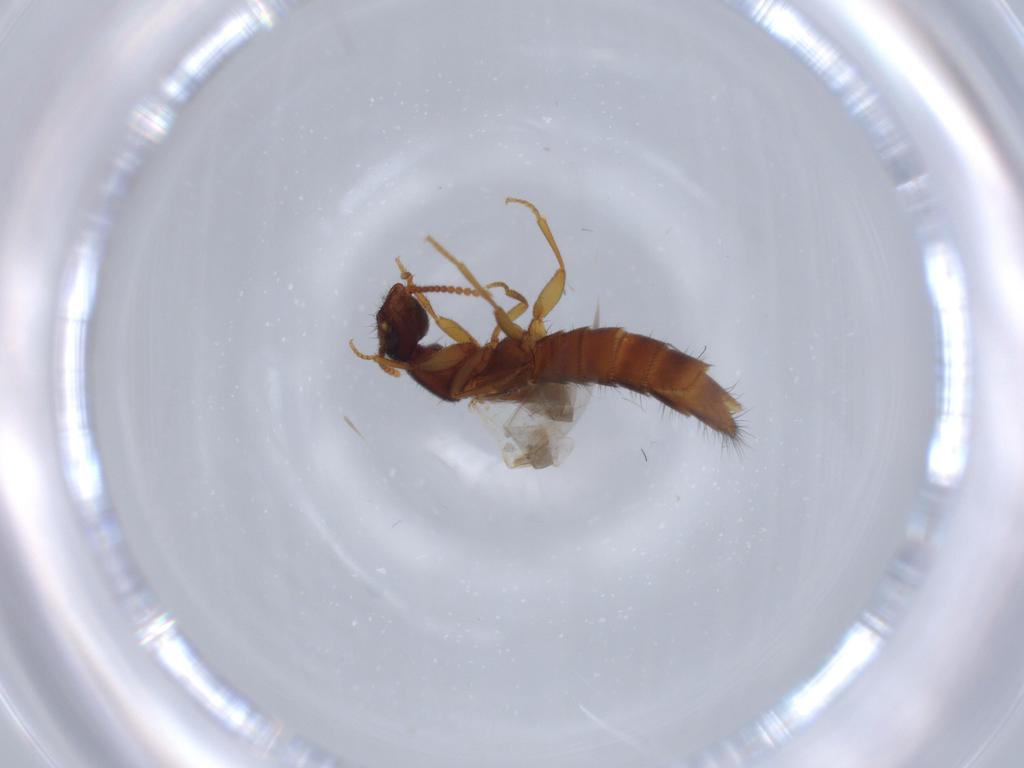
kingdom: Animalia
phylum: Arthropoda
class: Insecta
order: Coleoptera
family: Staphylinidae
